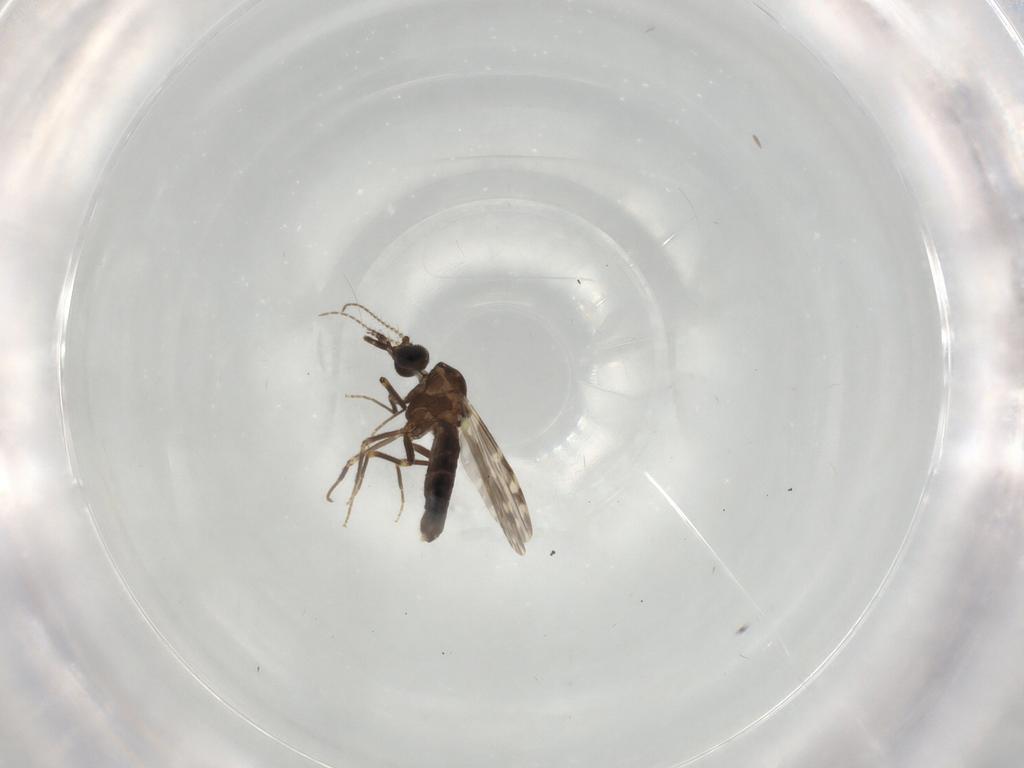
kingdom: Animalia
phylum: Arthropoda
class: Insecta
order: Diptera
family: Ceratopogonidae
